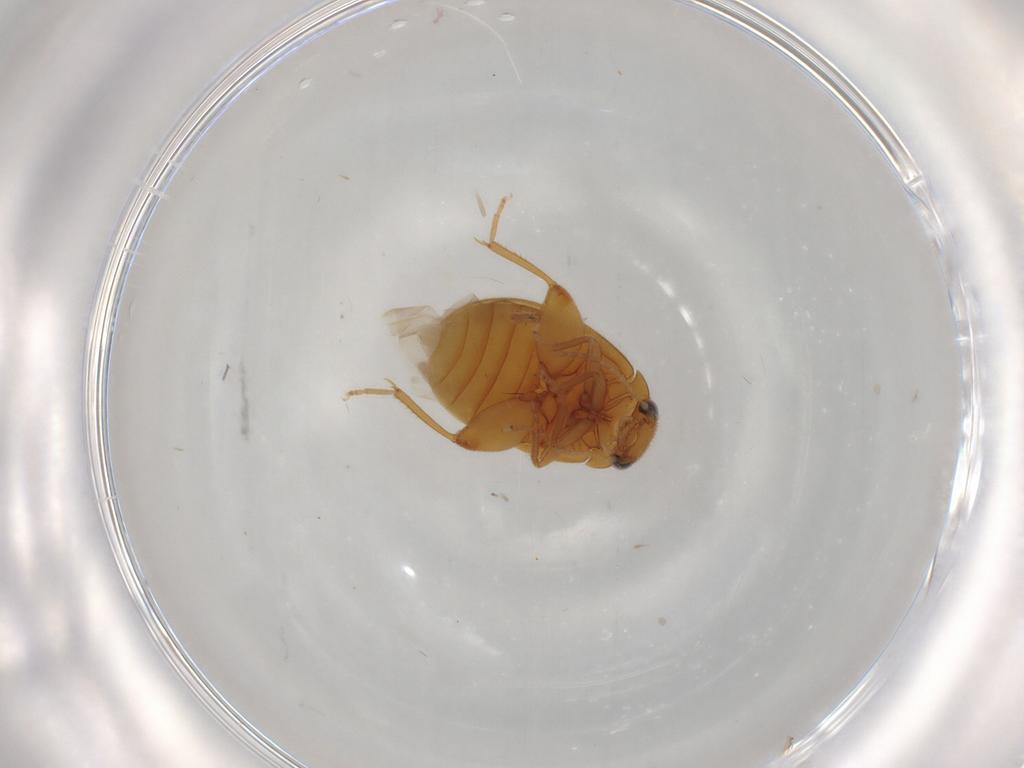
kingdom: Animalia
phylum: Arthropoda
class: Insecta
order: Coleoptera
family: Scirtidae
